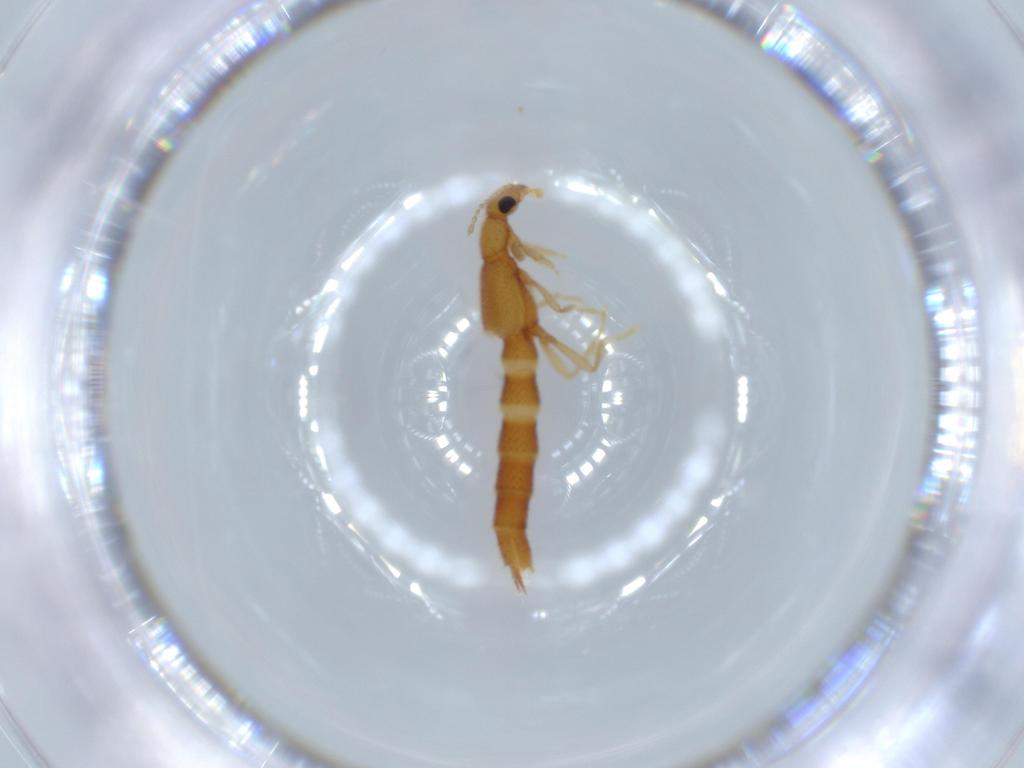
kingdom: Animalia
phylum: Arthropoda
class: Insecta
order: Coleoptera
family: Staphylinidae
